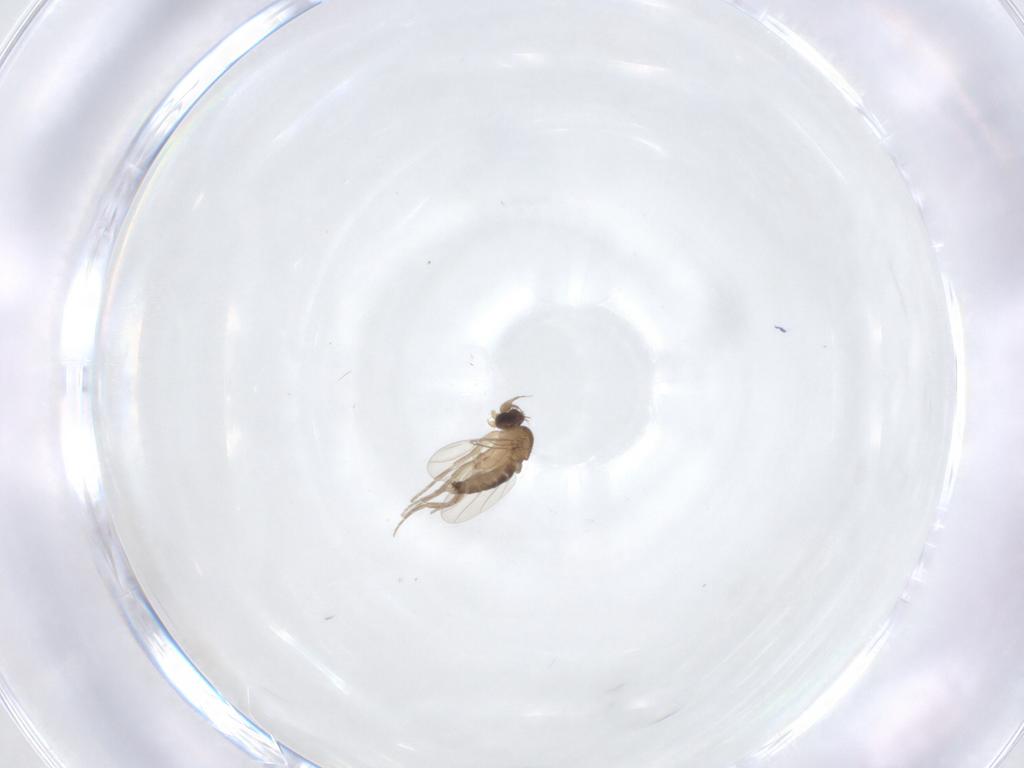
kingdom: Animalia
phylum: Arthropoda
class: Insecta
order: Diptera
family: Phoridae
